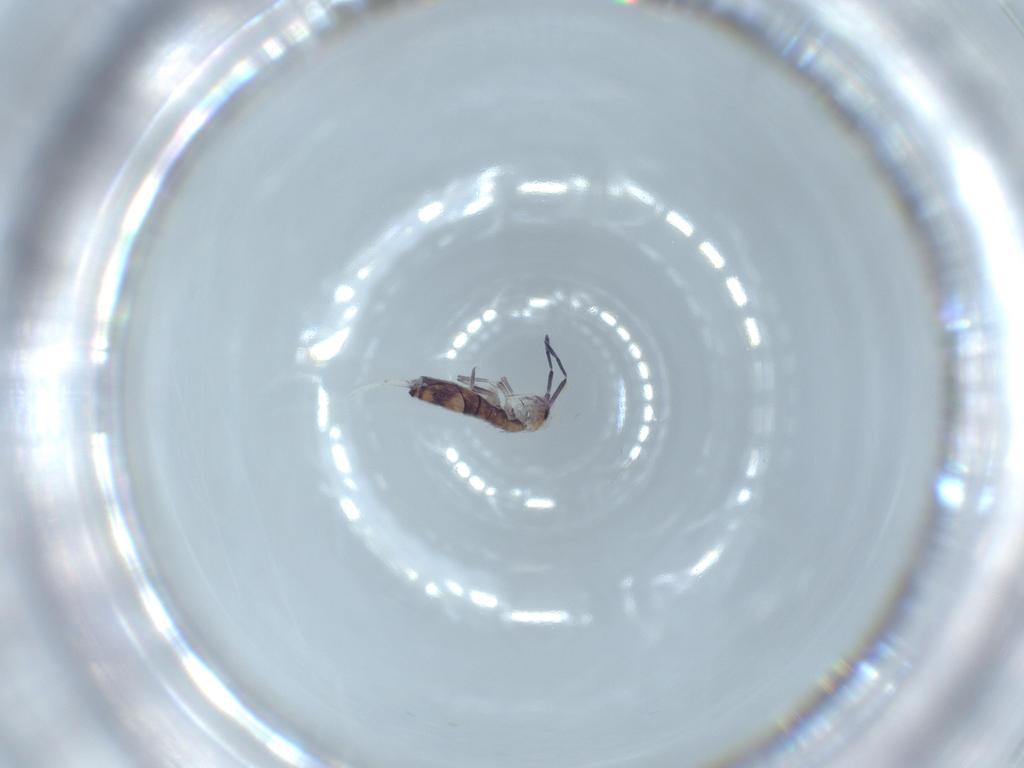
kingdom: Animalia
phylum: Arthropoda
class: Collembola
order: Entomobryomorpha
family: Entomobryidae
